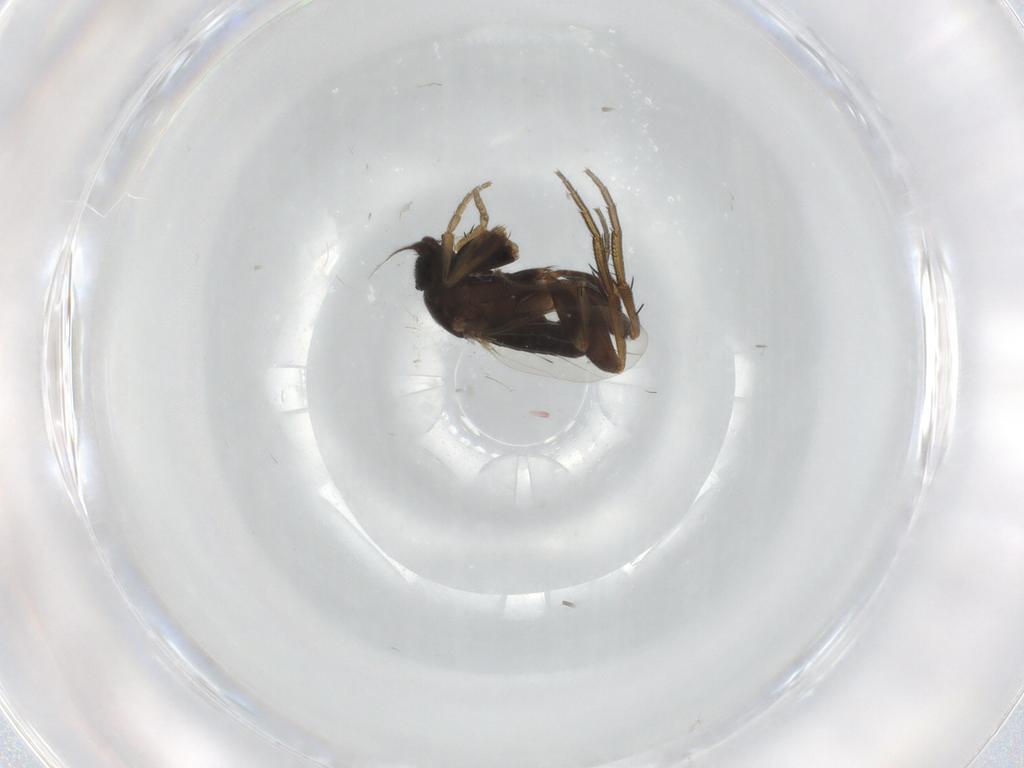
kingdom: Animalia
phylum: Arthropoda
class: Insecta
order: Diptera
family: Phoridae
